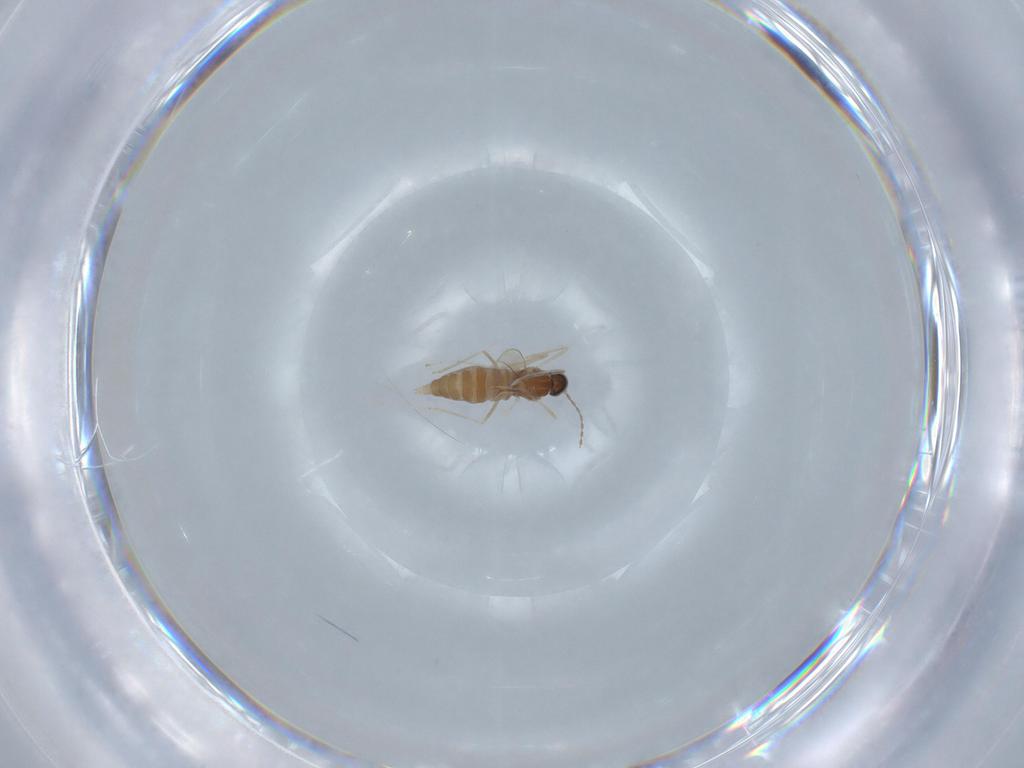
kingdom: Animalia
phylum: Arthropoda
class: Insecta
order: Diptera
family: Cecidomyiidae
